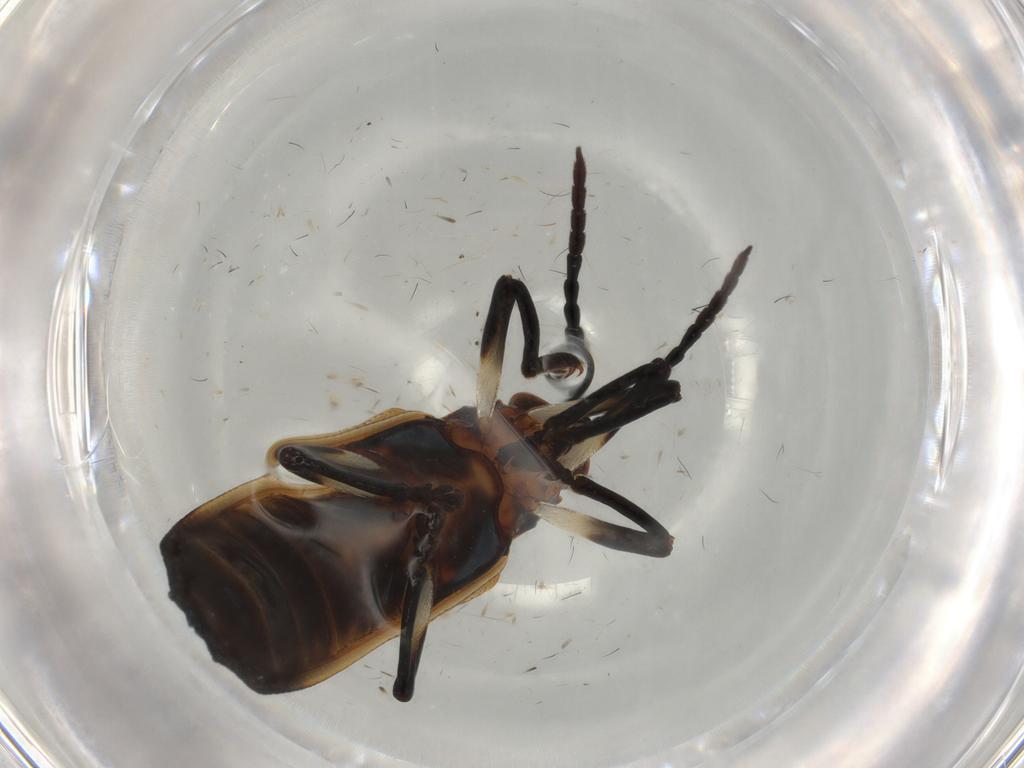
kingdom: Animalia
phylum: Arthropoda
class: Insecta
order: Coleoptera
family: Chrysomelidae
